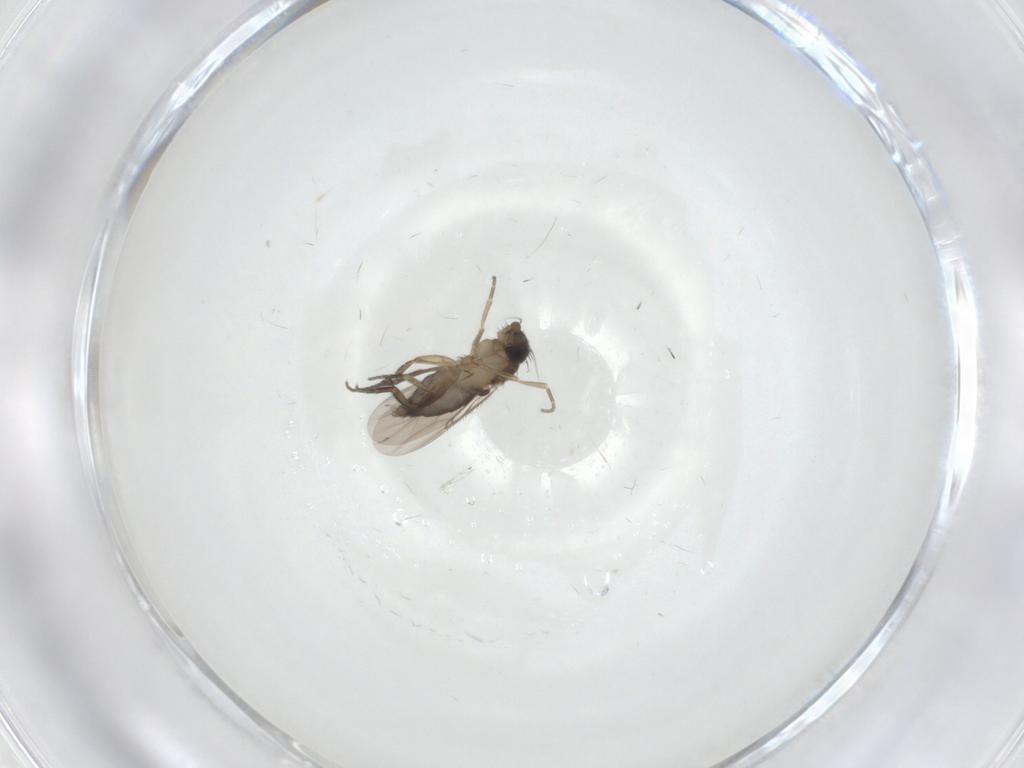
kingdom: Animalia
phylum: Arthropoda
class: Insecta
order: Diptera
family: Phoridae
